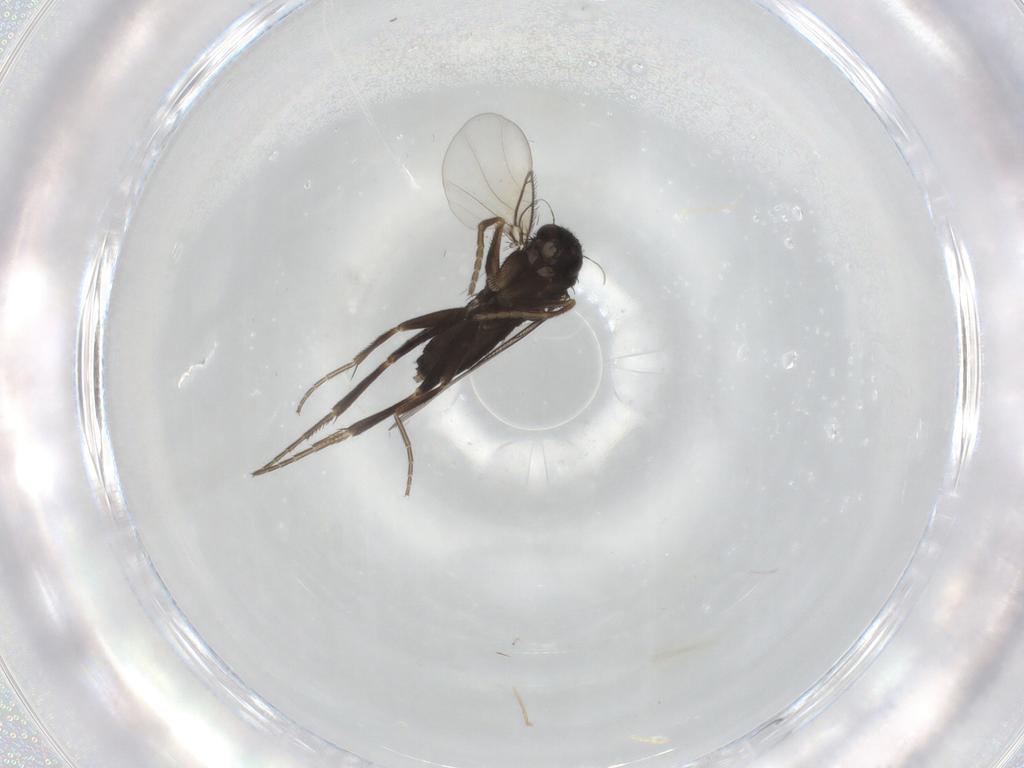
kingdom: Animalia
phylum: Arthropoda
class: Insecta
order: Diptera
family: Phoridae
